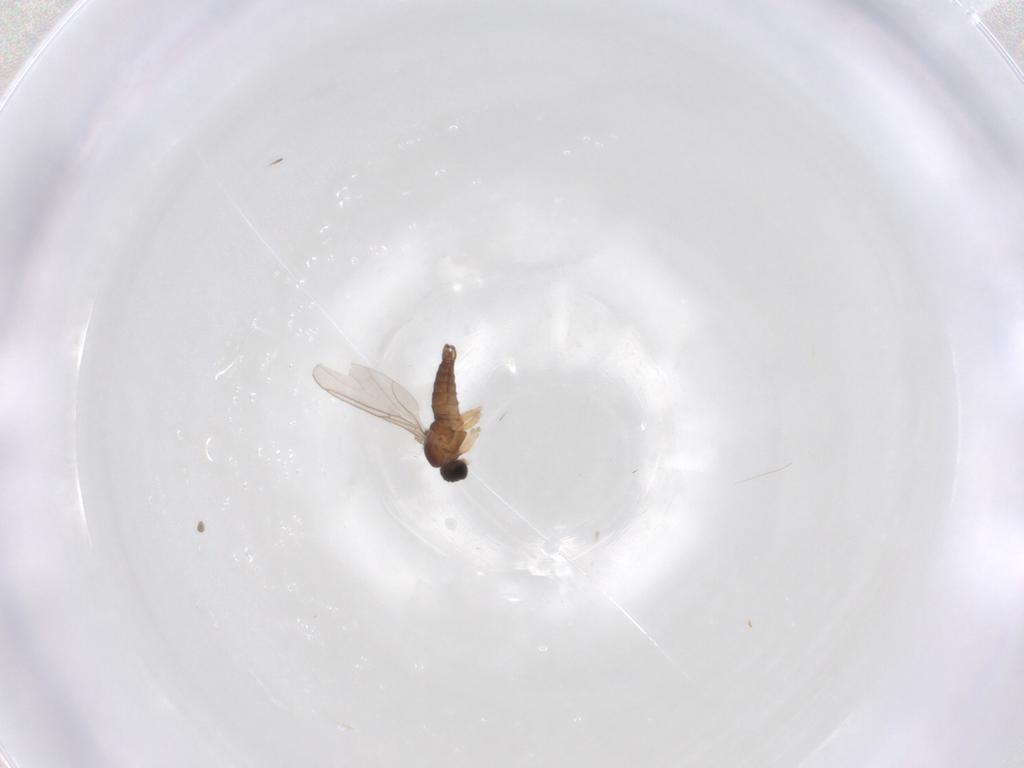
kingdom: Animalia
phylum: Arthropoda
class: Insecta
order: Diptera
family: Sciaridae
